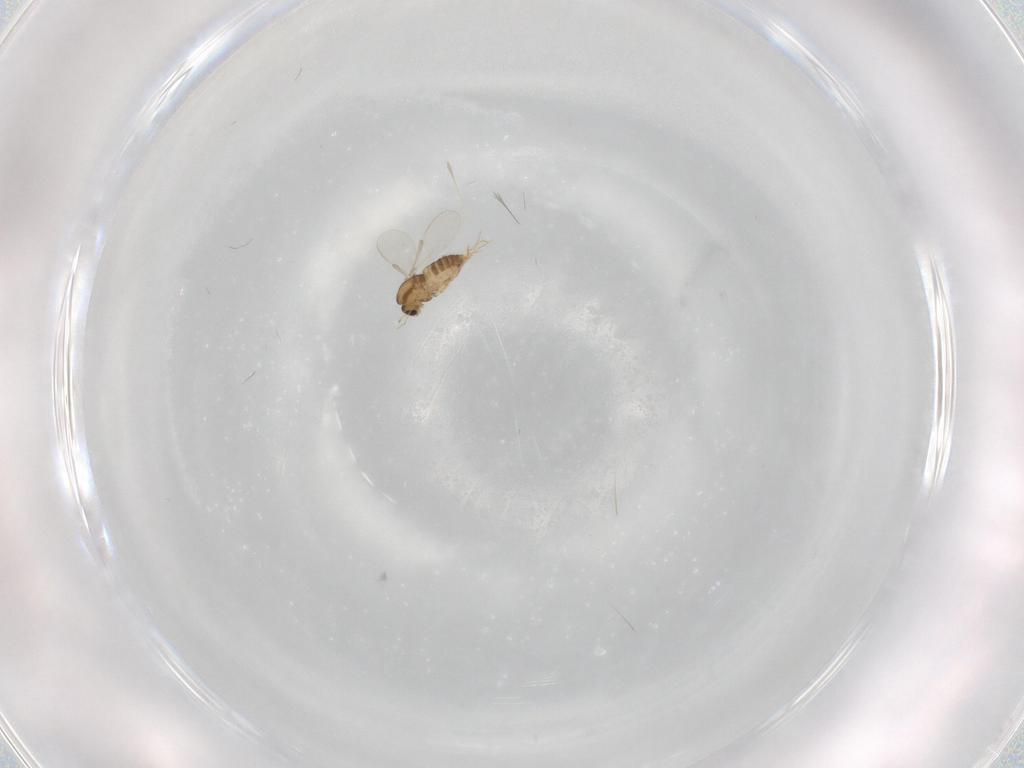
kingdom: Animalia
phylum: Arthropoda
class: Insecta
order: Diptera
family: Chironomidae
